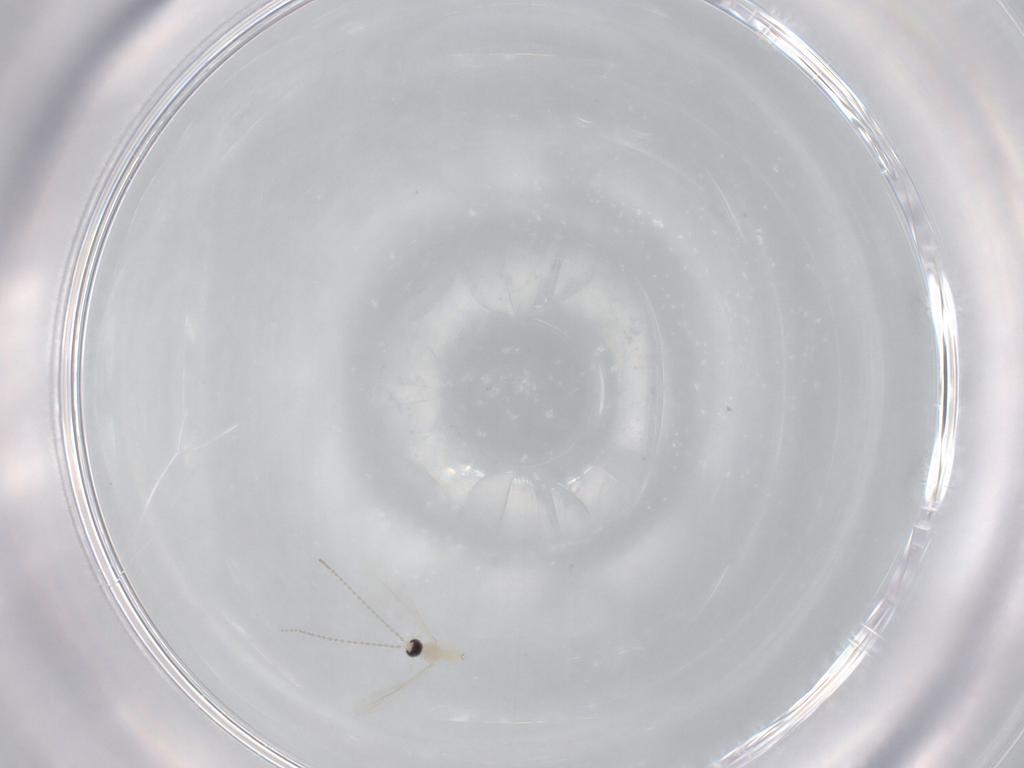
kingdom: Animalia
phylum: Arthropoda
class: Insecta
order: Diptera
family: Cecidomyiidae
